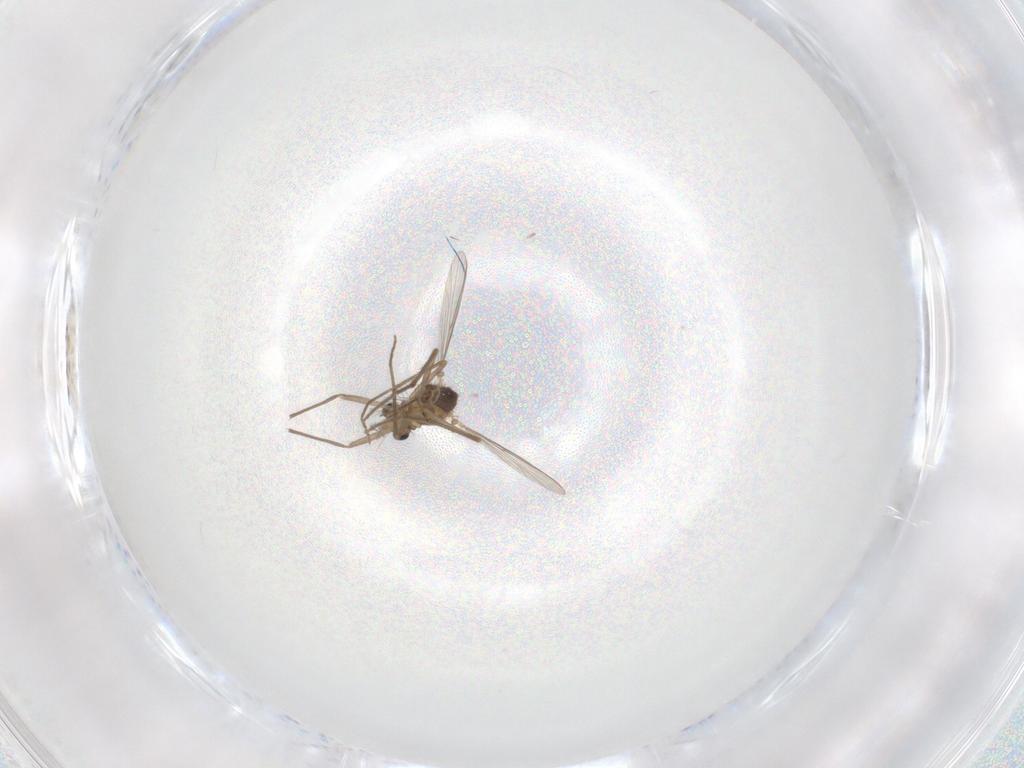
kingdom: Animalia
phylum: Arthropoda
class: Insecta
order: Diptera
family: Chironomidae
